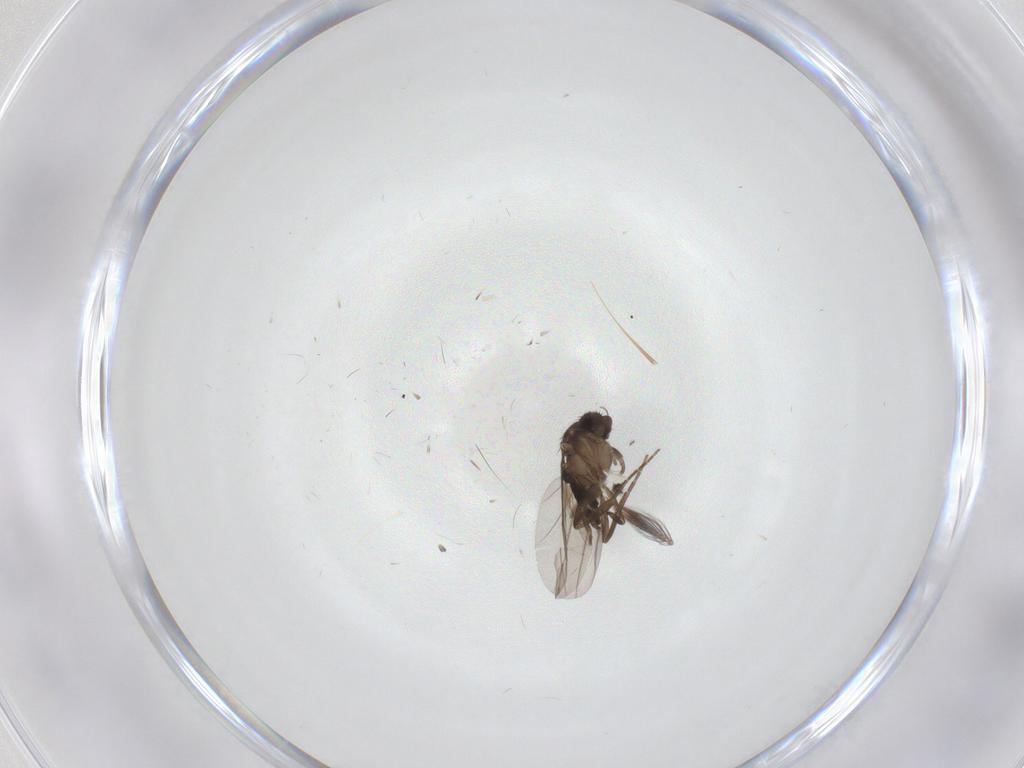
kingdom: Animalia
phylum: Arthropoda
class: Insecta
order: Diptera
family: Ceratopogonidae
